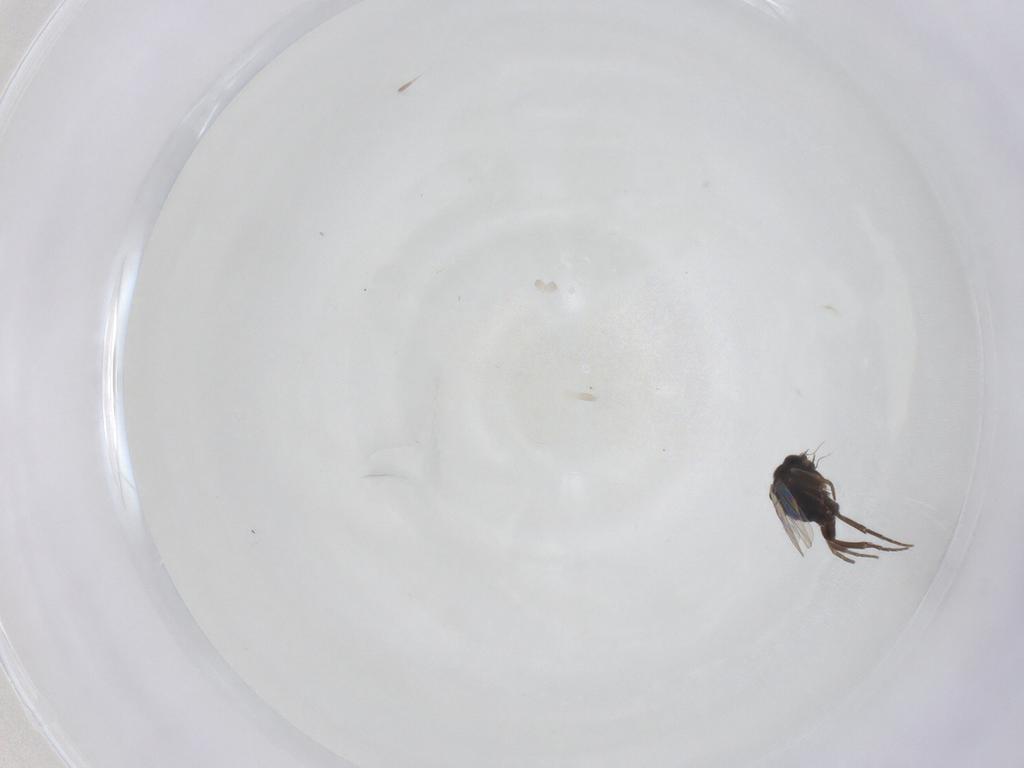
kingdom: Animalia
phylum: Arthropoda
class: Insecta
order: Diptera
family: Phoridae
